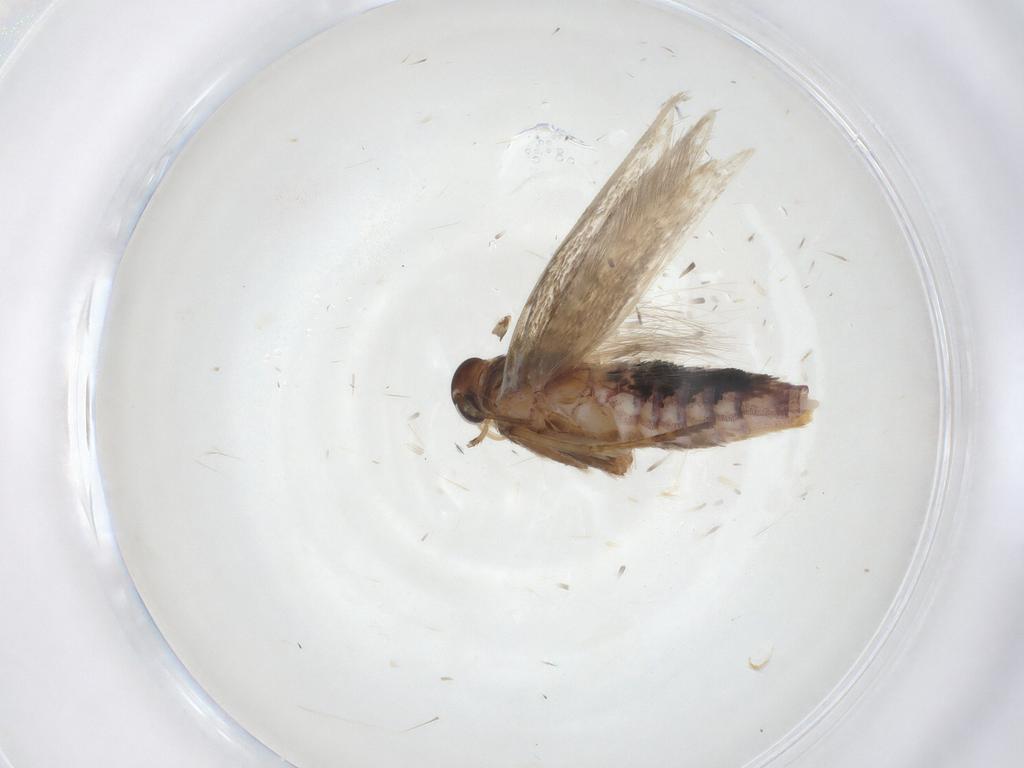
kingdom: Animalia
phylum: Arthropoda
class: Insecta
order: Lepidoptera
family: Cosmopterigidae
